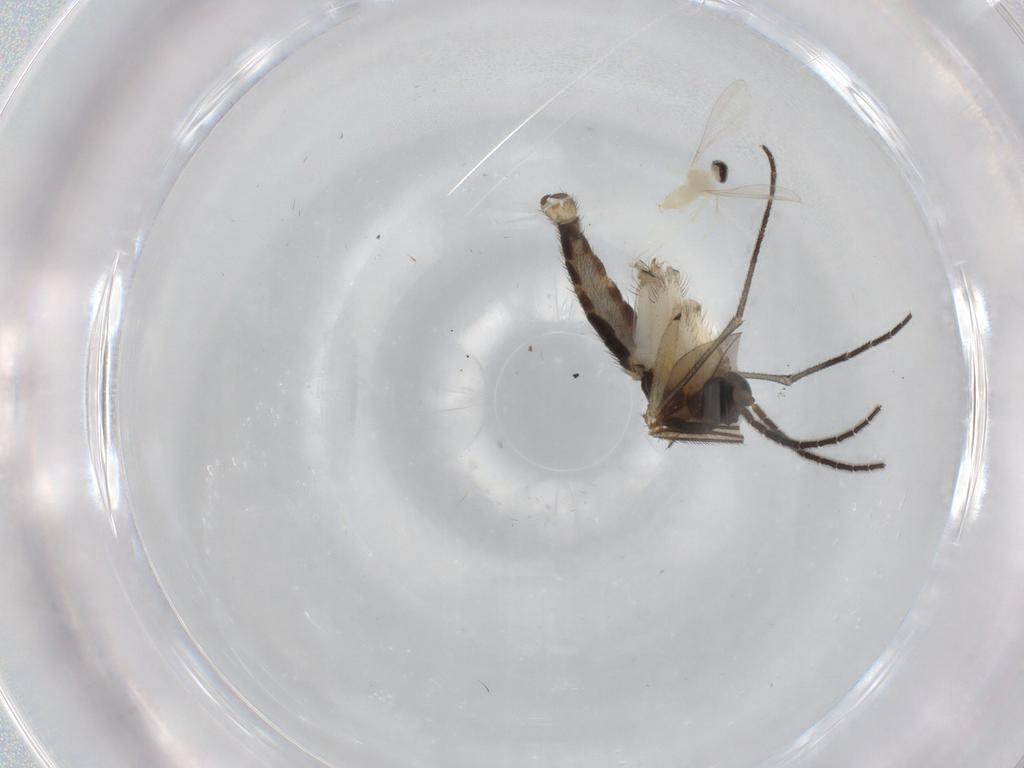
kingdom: Animalia
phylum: Arthropoda
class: Insecta
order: Diptera
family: Sciaridae
